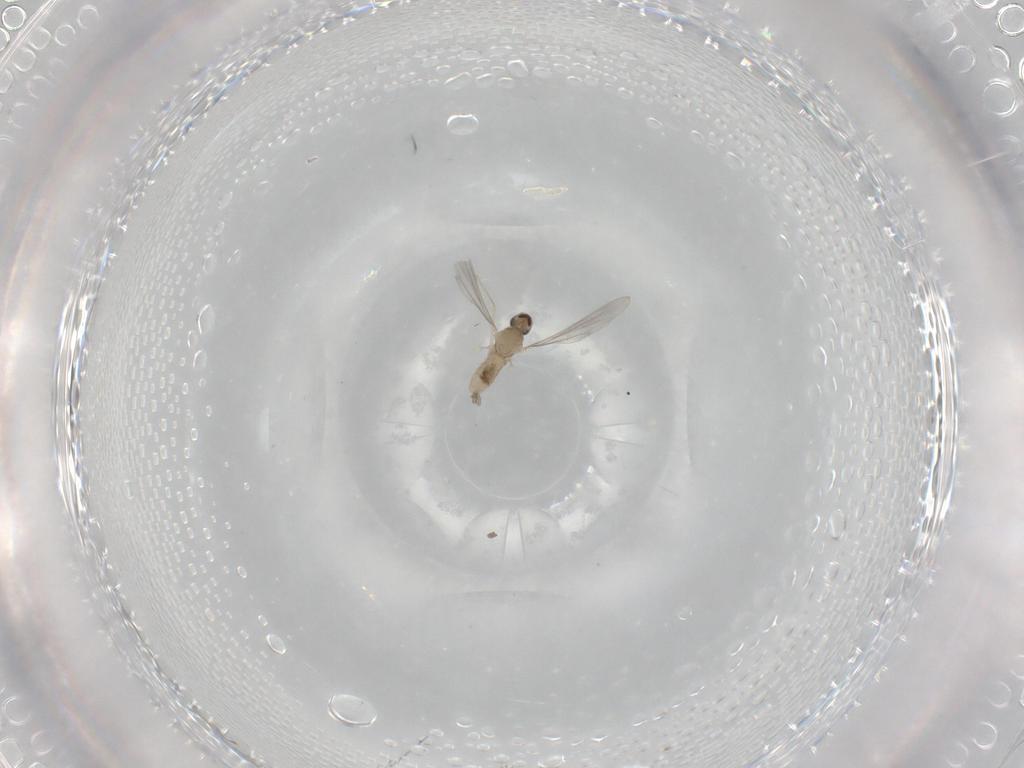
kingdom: Animalia
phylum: Arthropoda
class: Insecta
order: Diptera
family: Cecidomyiidae
